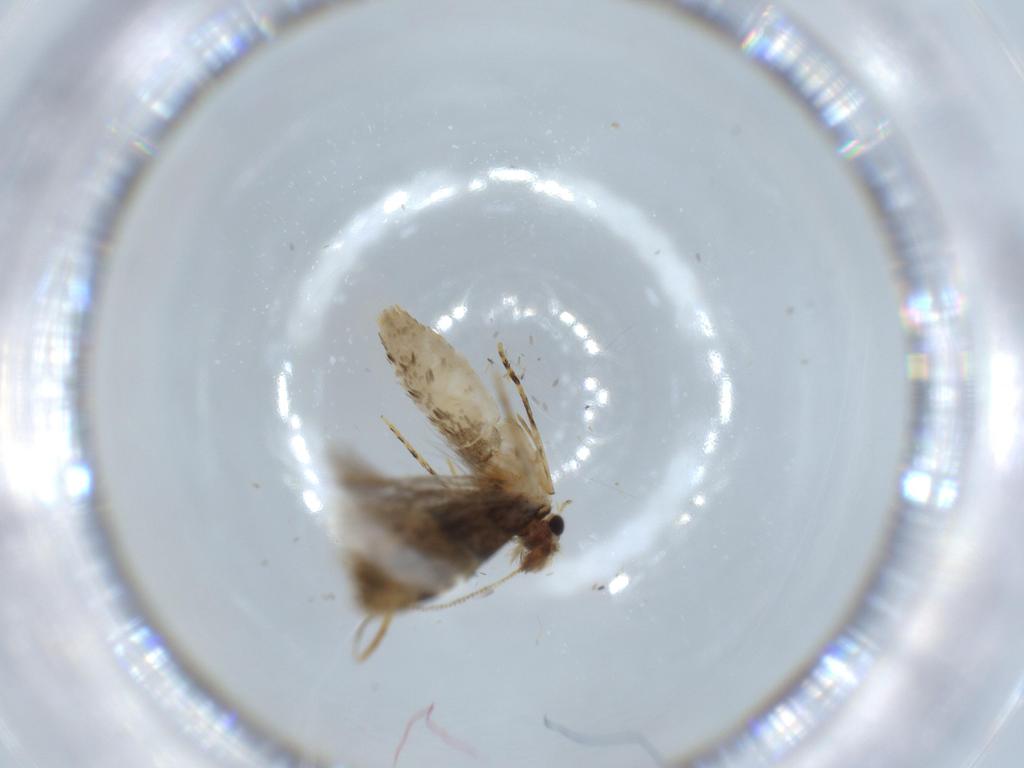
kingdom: Animalia
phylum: Arthropoda
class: Insecta
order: Lepidoptera
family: Tineidae
